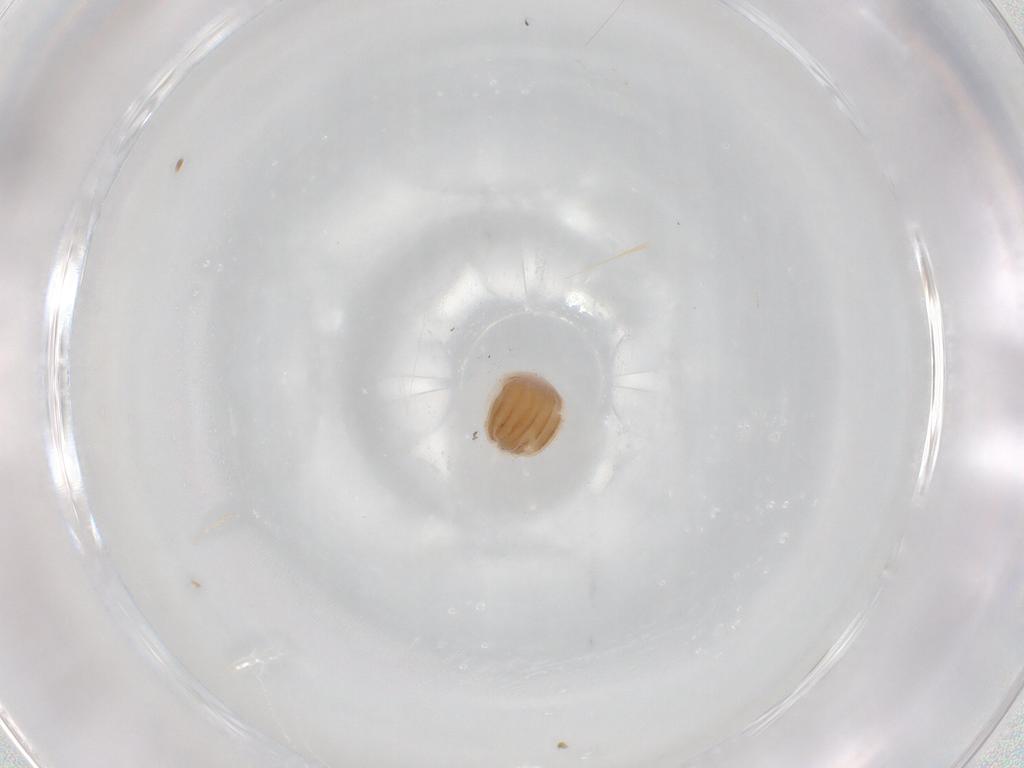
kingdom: Animalia
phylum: Arthropoda
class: Insecta
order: Lepidoptera
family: Noctuidae
